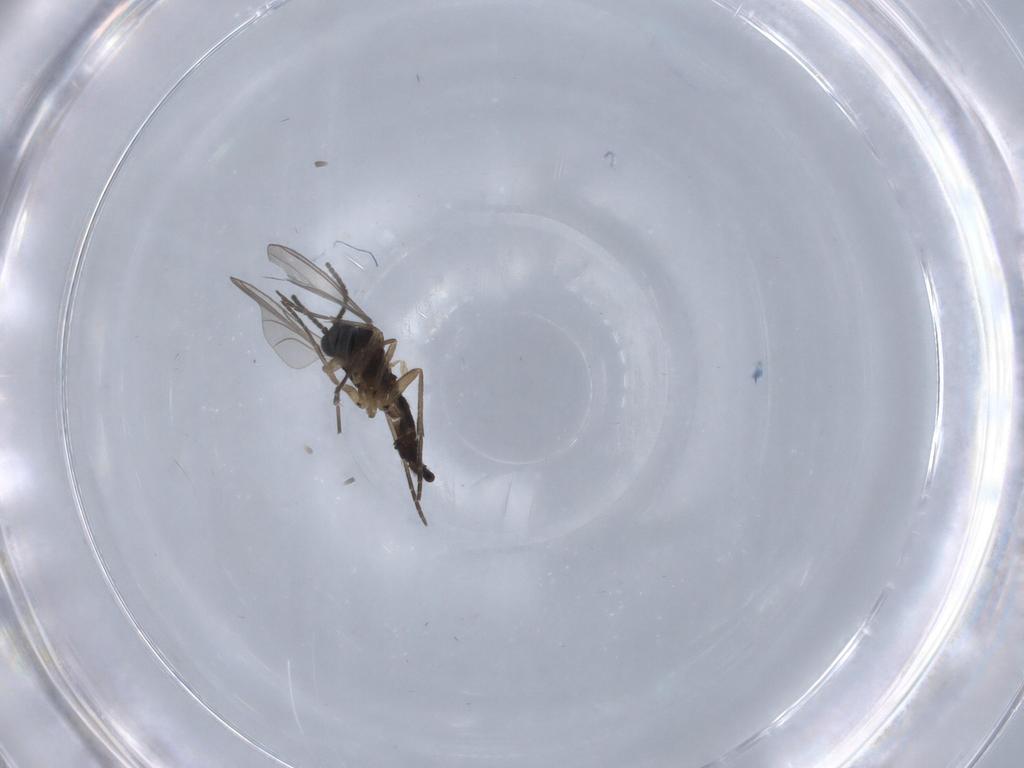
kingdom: Animalia
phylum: Arthropoda
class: Insecta
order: Diptera
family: Sciaridae
